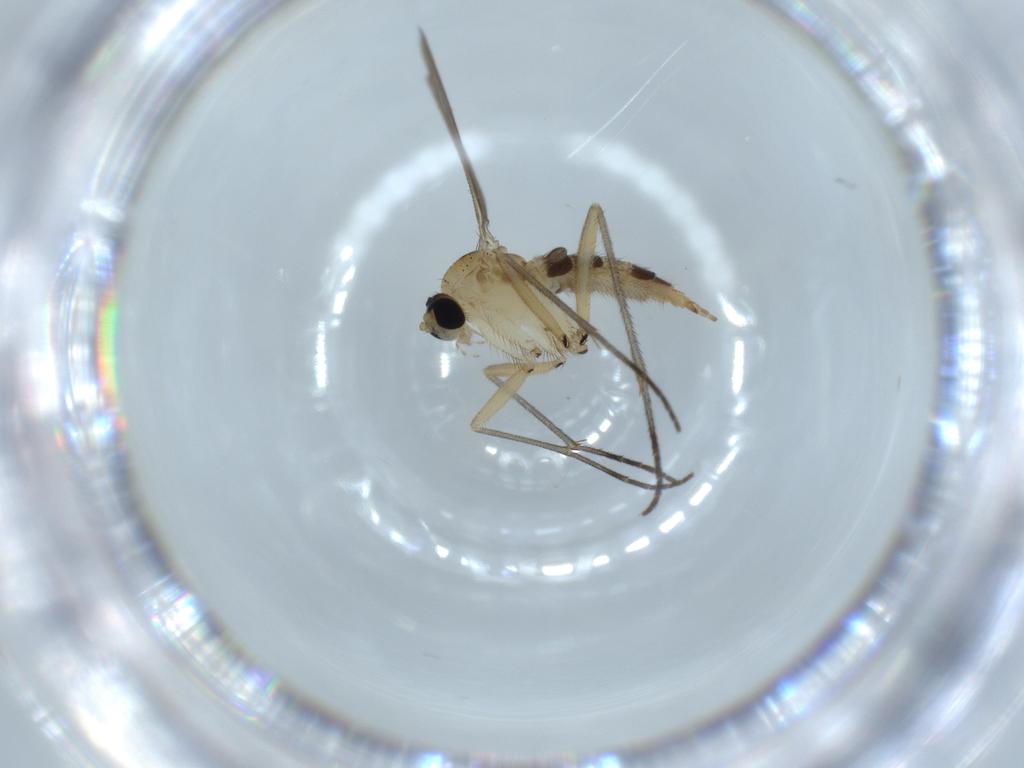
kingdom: Animalia
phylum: Arthropoda
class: Insecta
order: Diptera
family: Sciaridae
